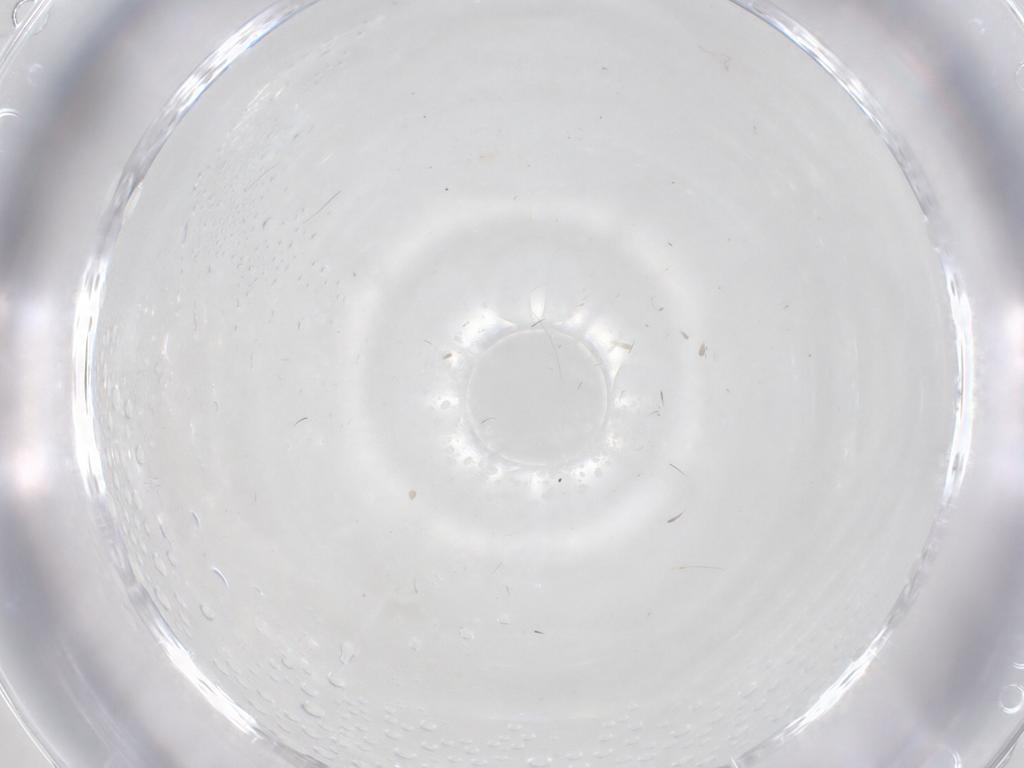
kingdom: Animalia
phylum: Arthropoda
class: Insecta
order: Diptera
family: Cecidomyiidae
